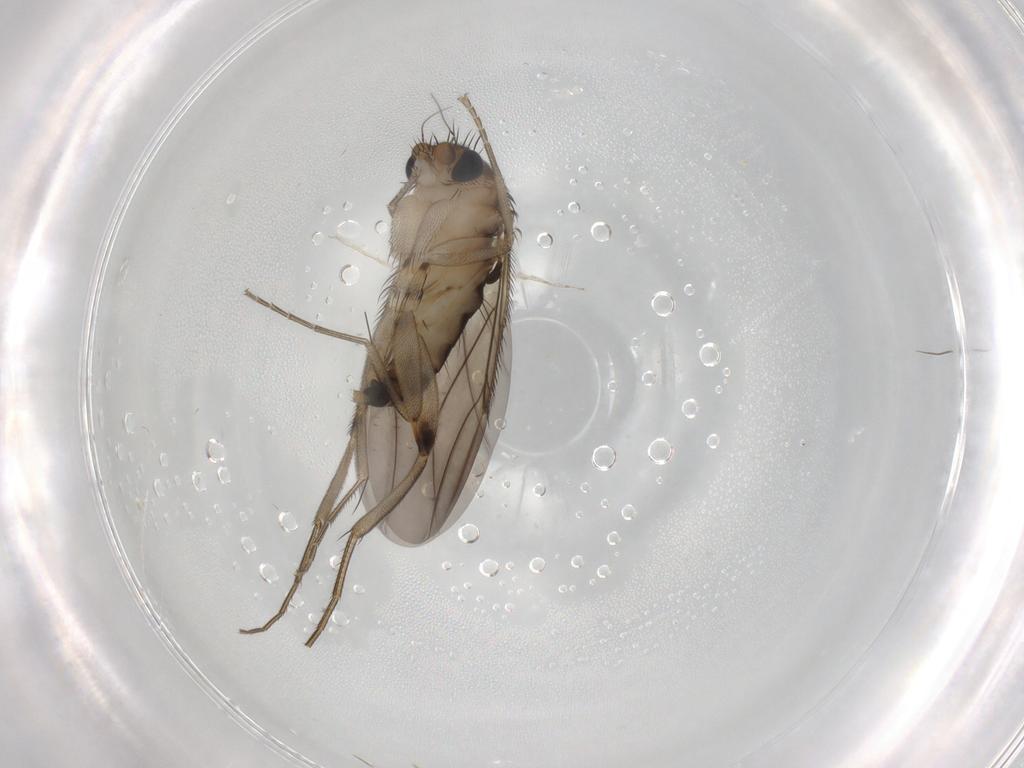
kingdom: Animalia
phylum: Arthropoda
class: Insecta
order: Diptera
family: Phoridae
